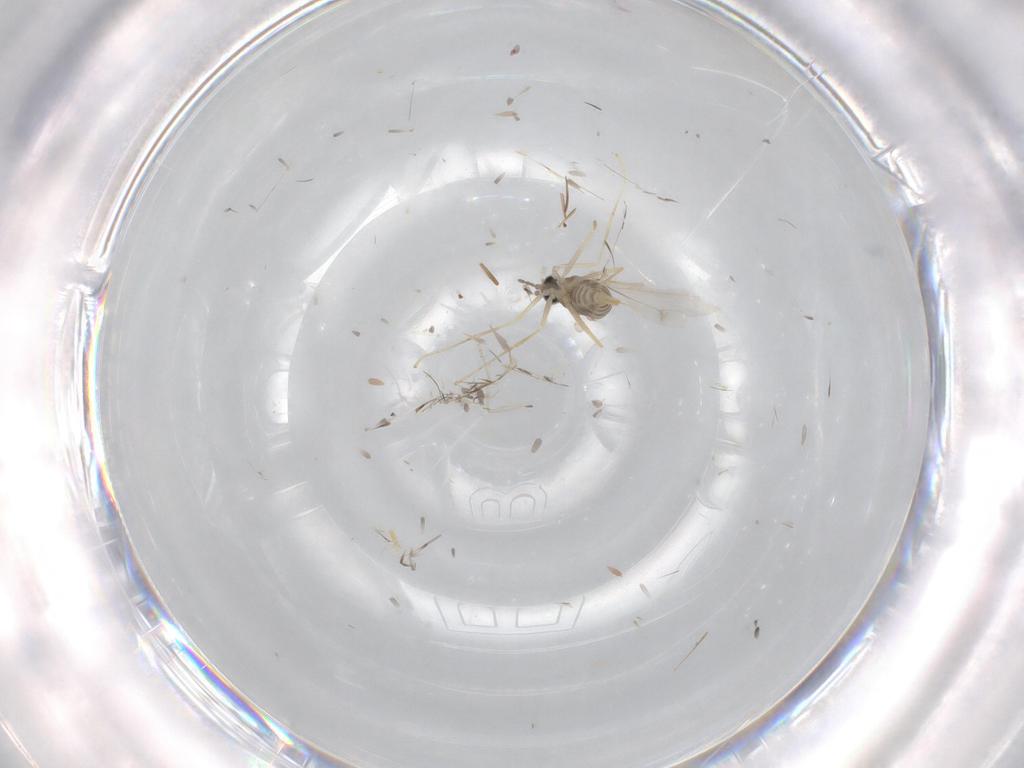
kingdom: Animalia
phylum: Arthropoda
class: Insecta
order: Diptera
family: Cecidomyiidae
